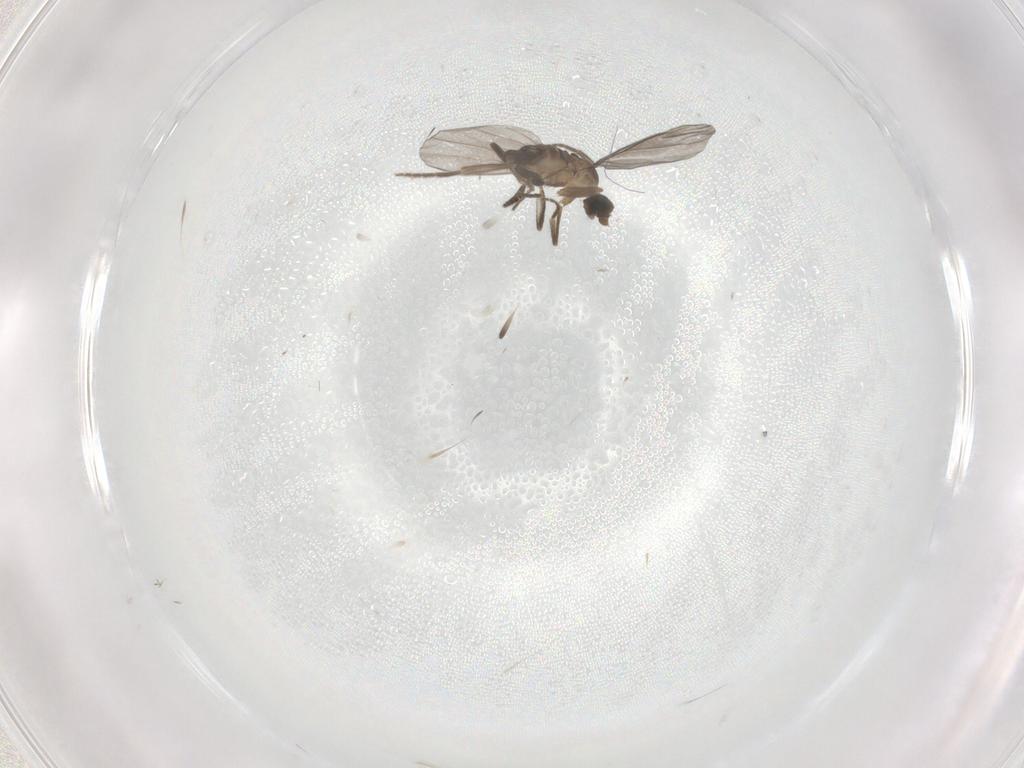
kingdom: Animalia
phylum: Arthropoda
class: Insecta
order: Diptera
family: Phoridae
